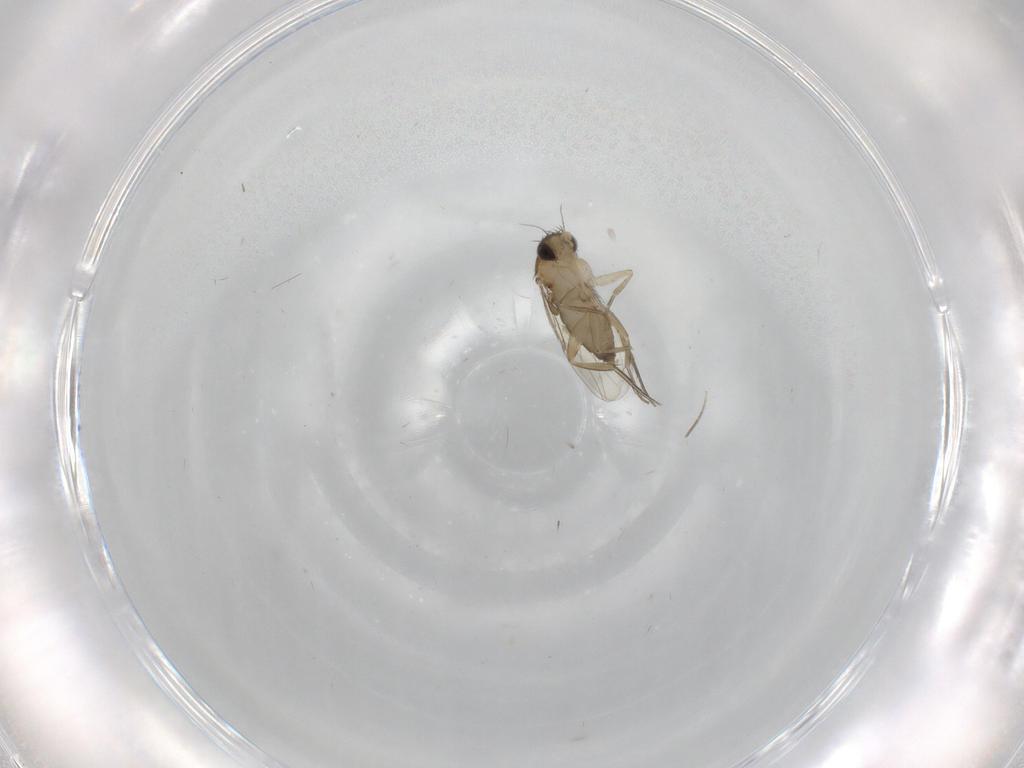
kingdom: Animalia
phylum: Arthropoda
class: Insecta
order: Diptera
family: Phoridae
